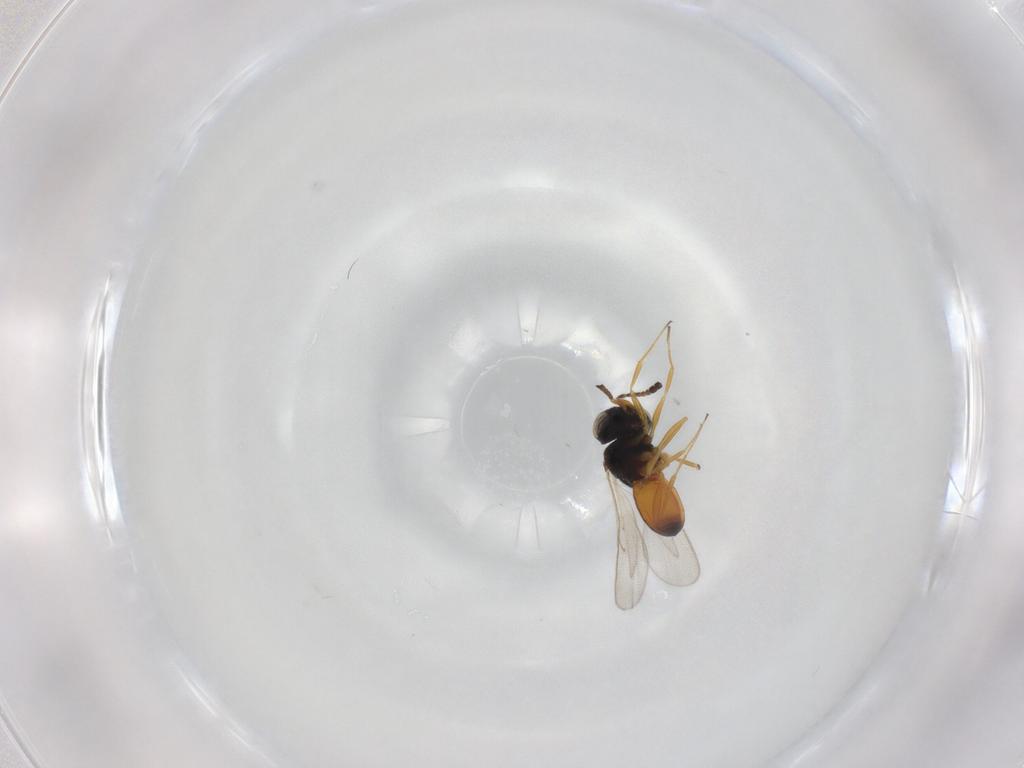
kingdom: Animalia
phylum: Arthropoda
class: Insecta
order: Hymenoptera
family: Scelionidae
